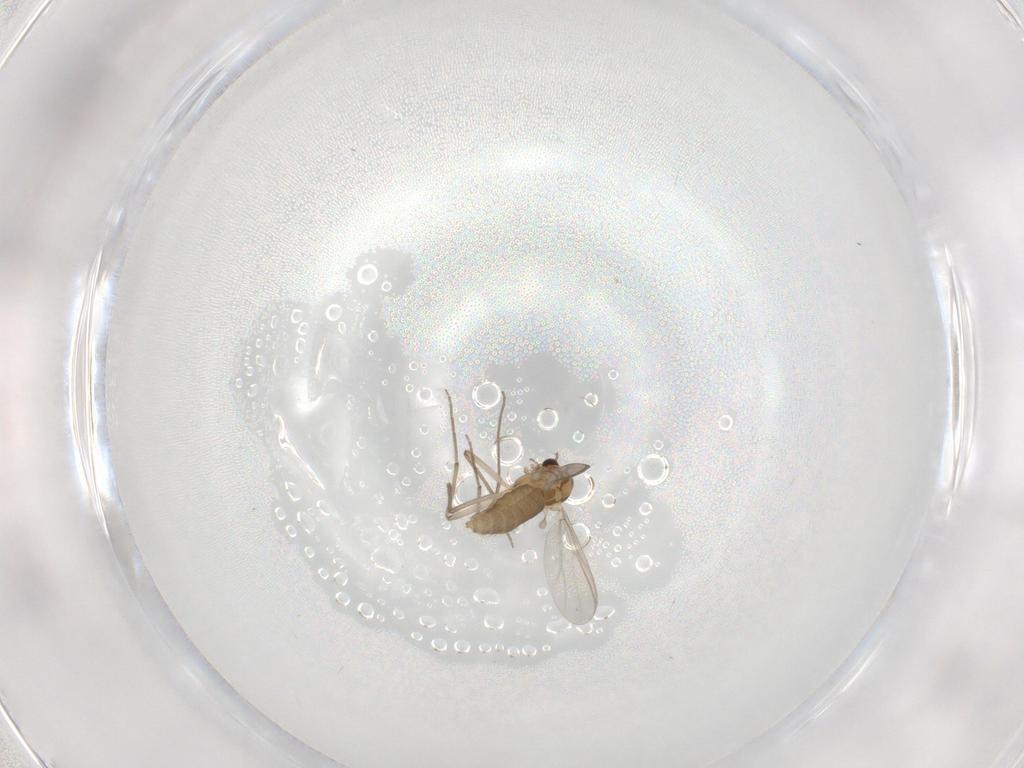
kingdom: Animalia
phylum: Arthropoda
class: Insecta
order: Diptera
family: Chironomidae
